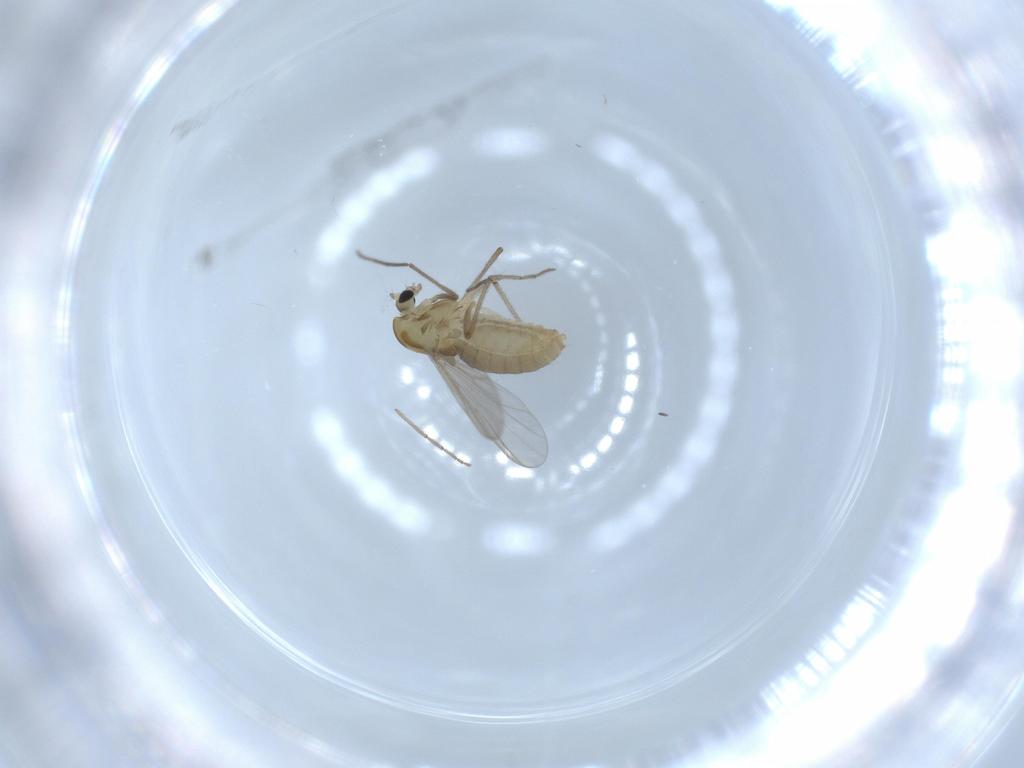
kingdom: Animalia
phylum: Arthropoda
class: Insecta
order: Diptera
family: Chironomidae
